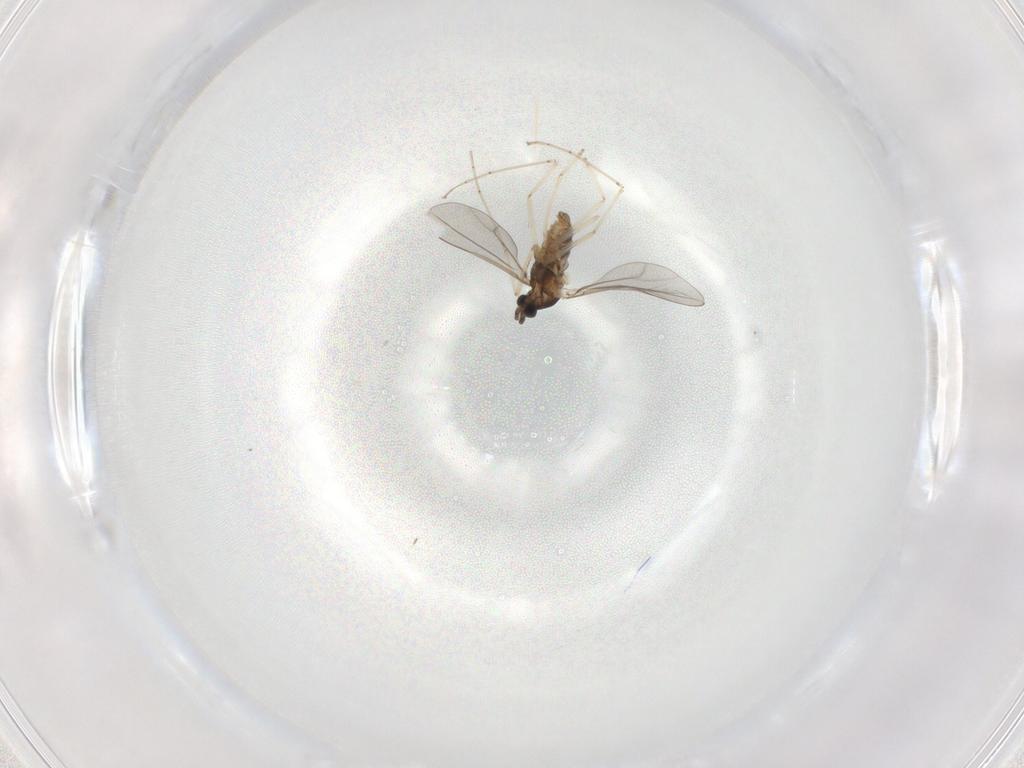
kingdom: Animalia
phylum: Arthropoda
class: Insecta
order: Diptera
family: Cecidomyiidae
